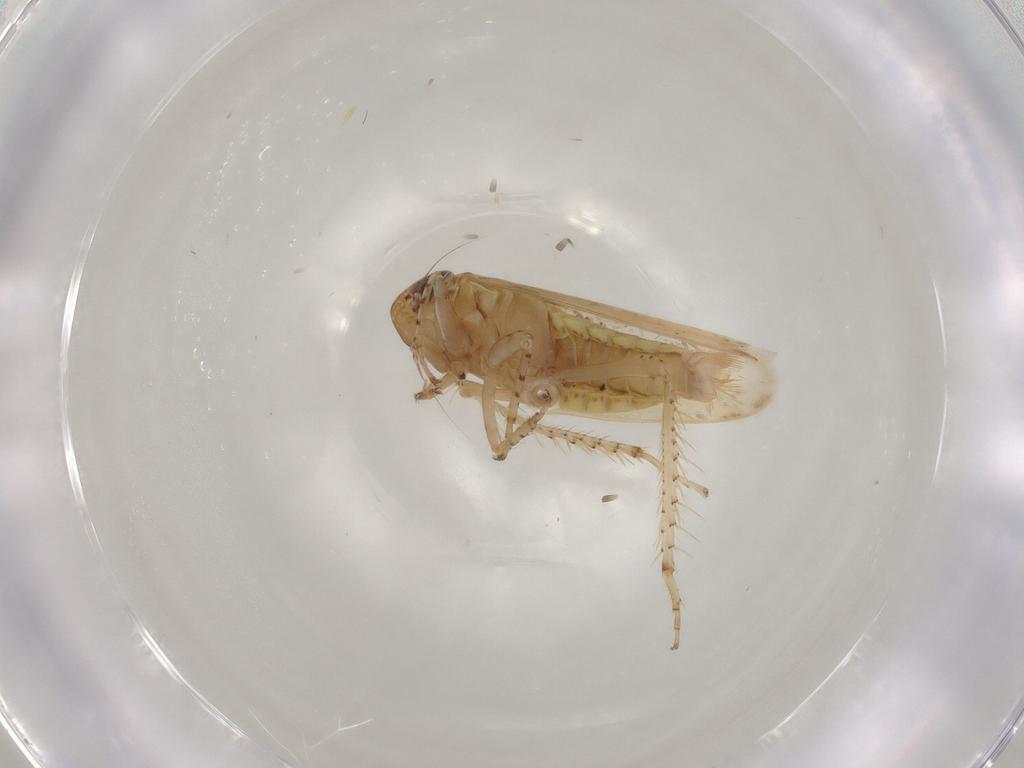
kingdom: Animalia
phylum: Arthropoda
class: Insecta
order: Hemiptera
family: Cicadellidae
